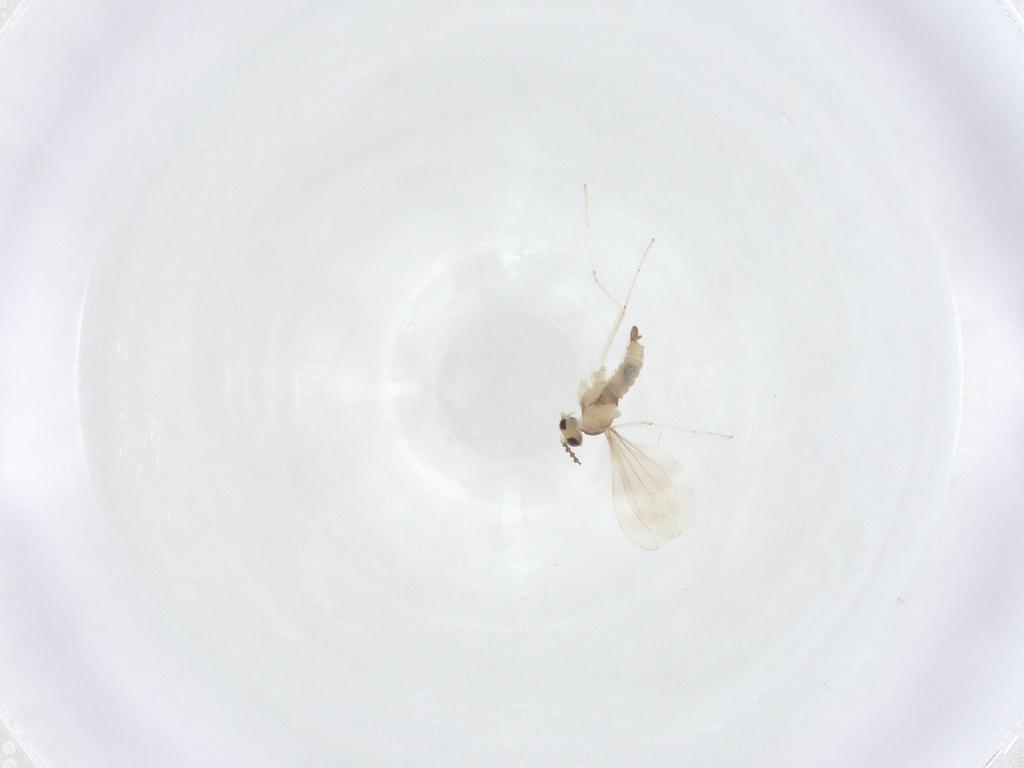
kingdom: Animalia
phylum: Arthropoda
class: Insecta
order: Diptera
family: Cecidomyiidae
